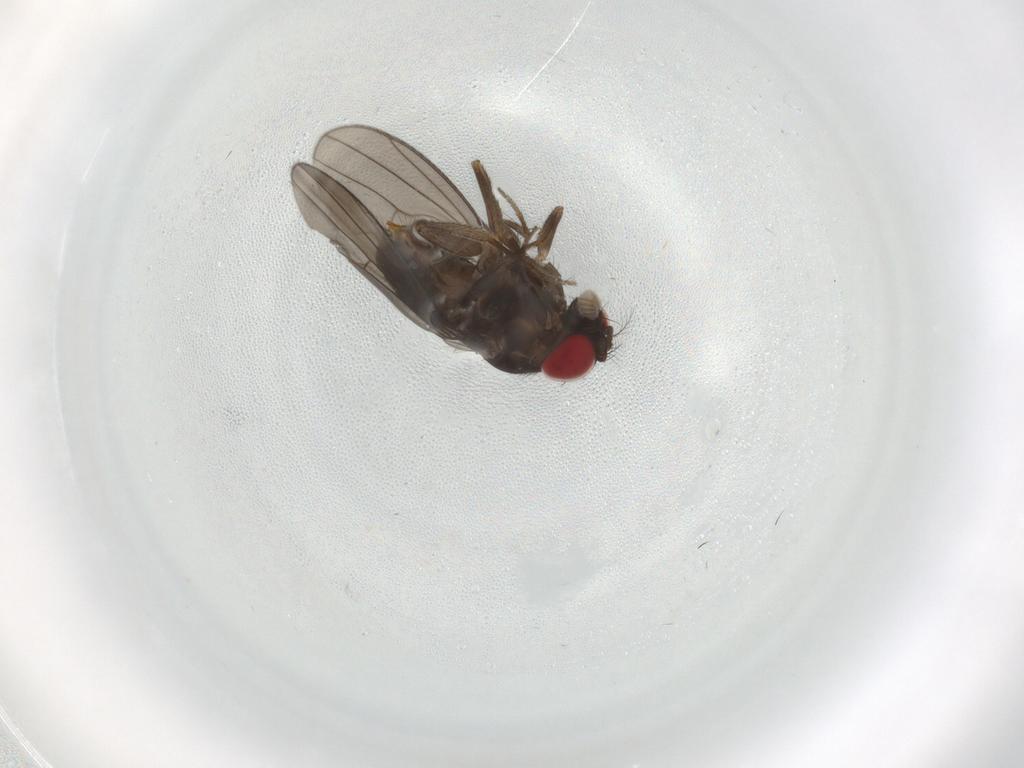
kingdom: Animalia
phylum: Arthropoda
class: Insecta
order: Diptera
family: Drosophilidae
